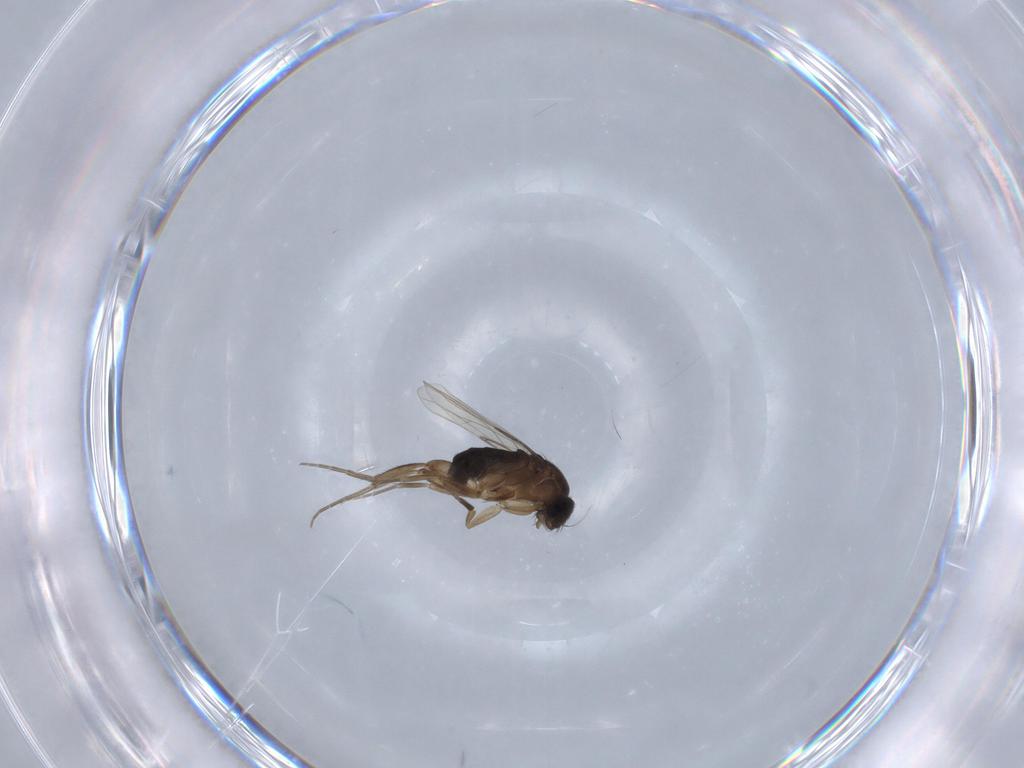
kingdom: Animalia
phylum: Arthropoda
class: Insecta
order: Diptera
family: Phoridae
